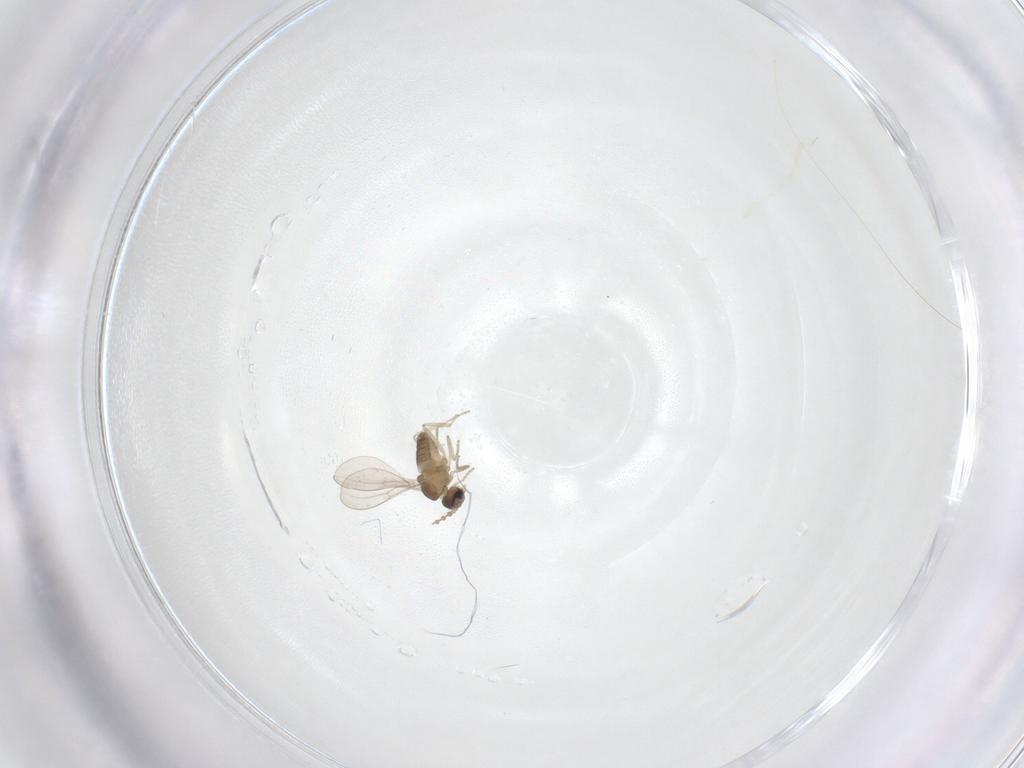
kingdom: Animalia
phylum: Arthropoda
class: Insecta
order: Diptera
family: Cecidomyiidae
